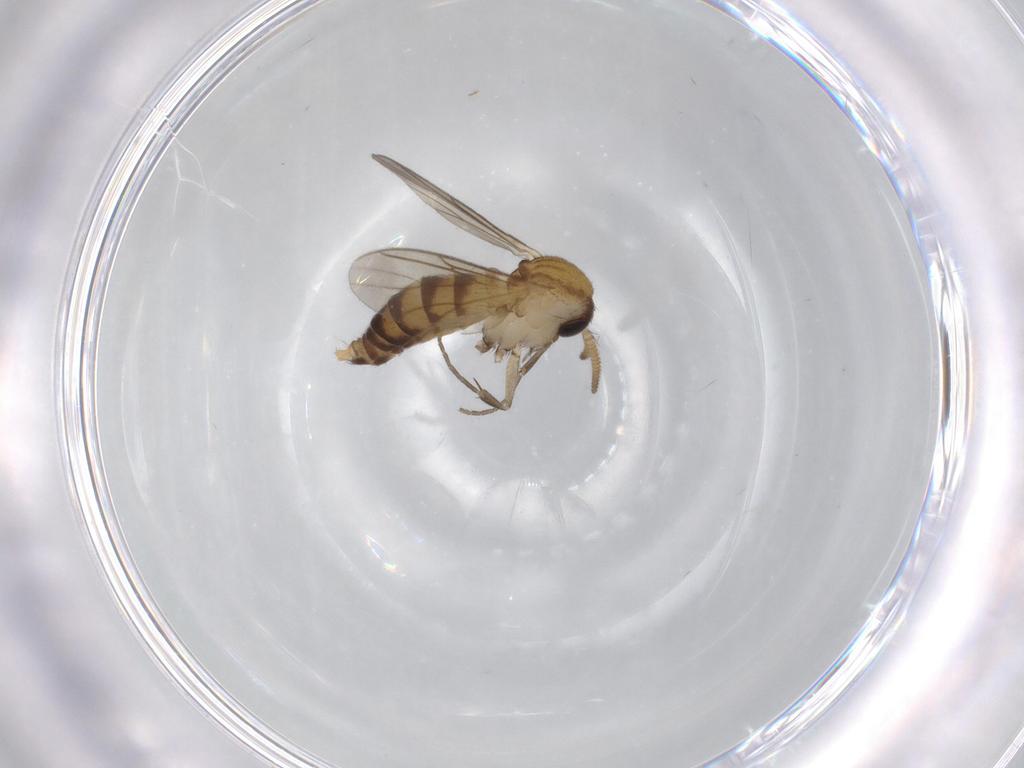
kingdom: Animalia
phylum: Arthropoda
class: Insecta
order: Diptera
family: Mycetophilidae
